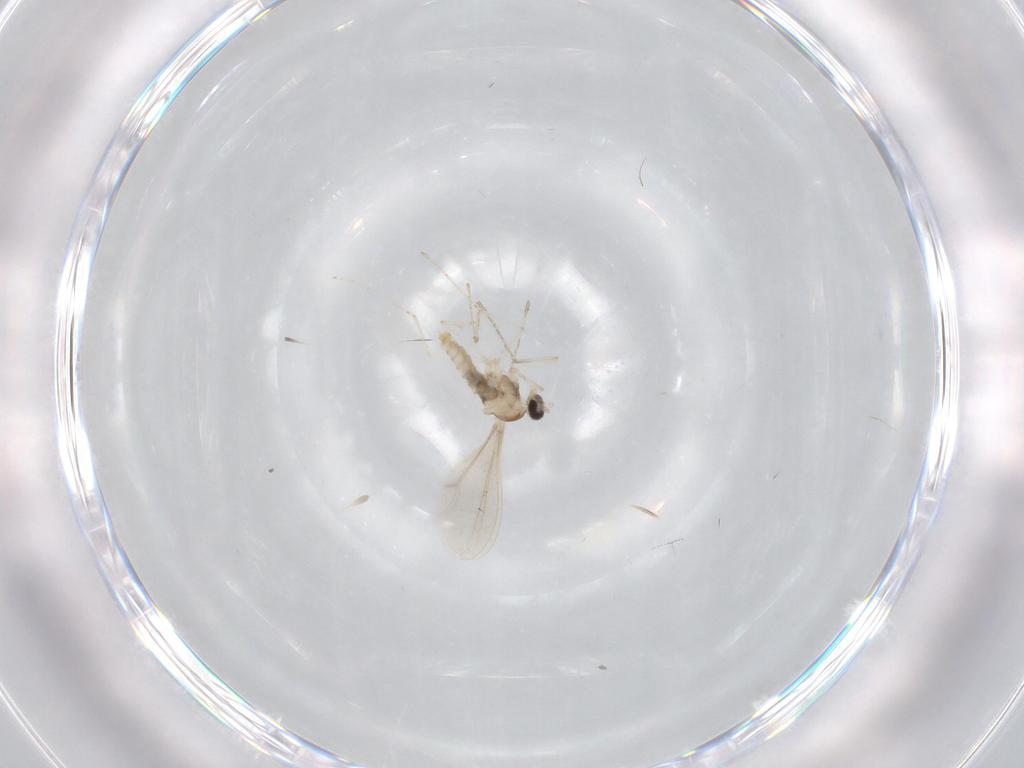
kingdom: Animalia
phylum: Arthropoda
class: Insecta
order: Diptera
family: Cecidomyiidae
